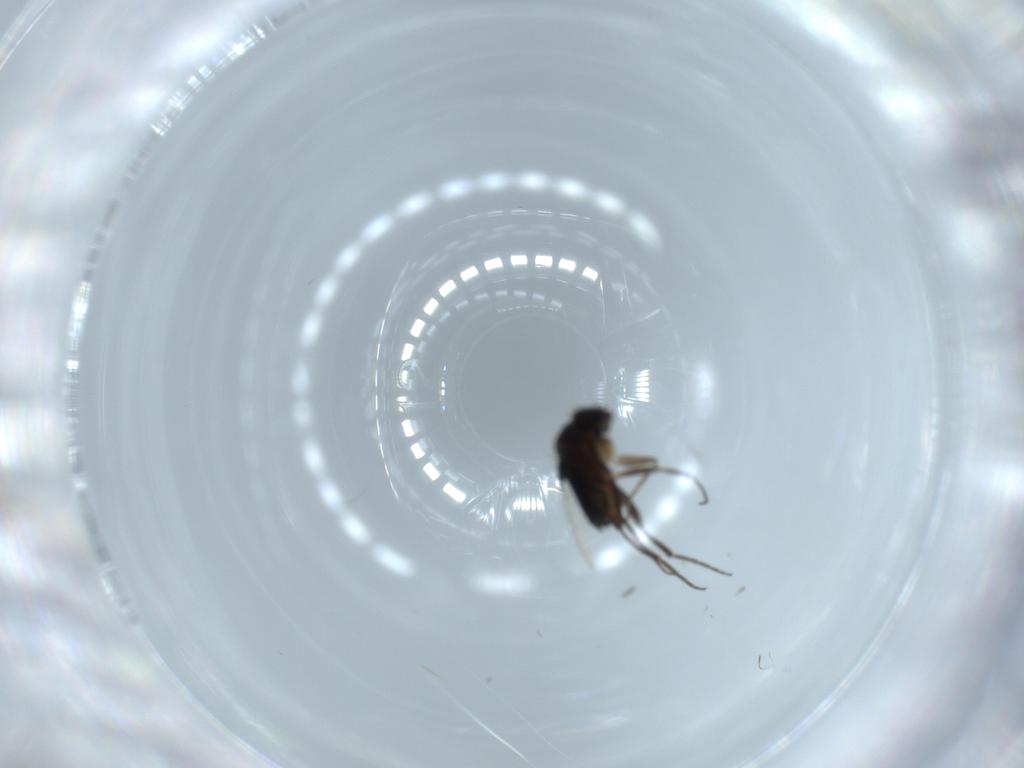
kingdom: Animalia
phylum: Arthropoda
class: Insecta
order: Diptera
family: Phoridae
